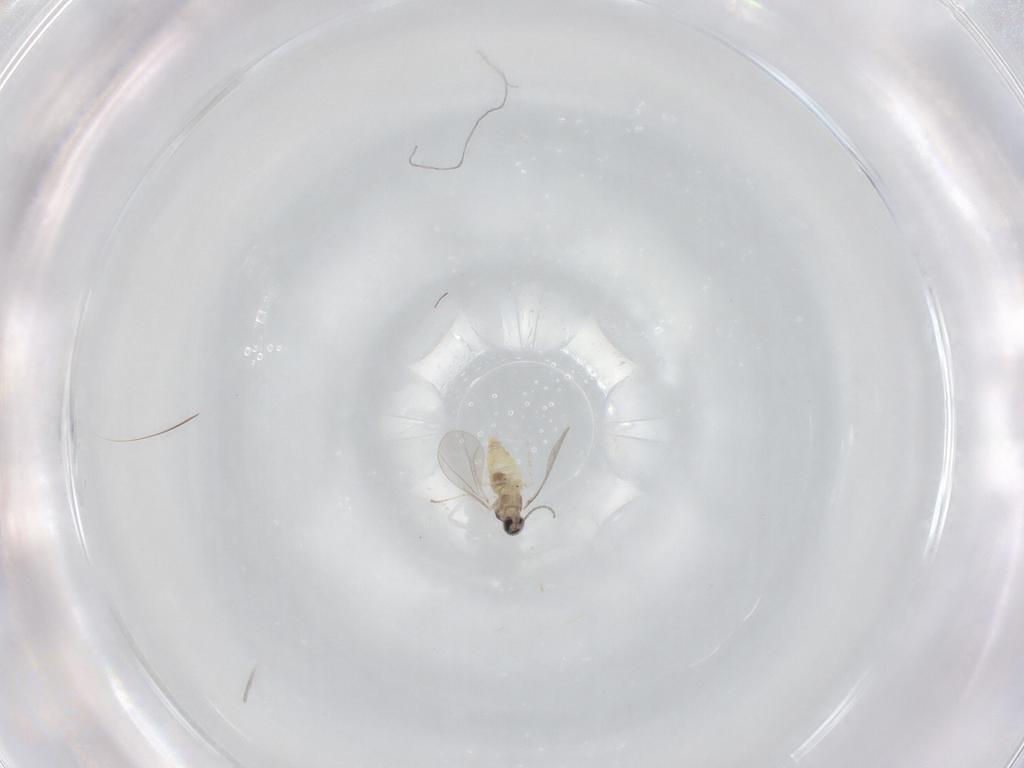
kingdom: Animalia
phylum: Arthropoda
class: Insecta
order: Diptera
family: Cecidomyiidae
